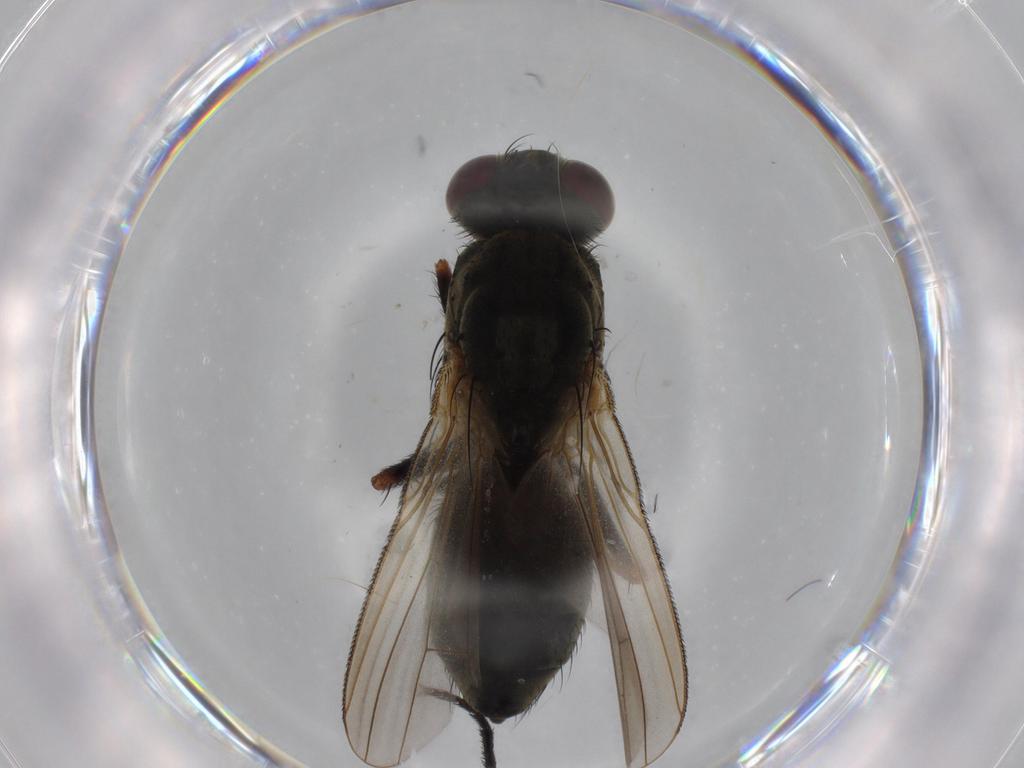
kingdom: Animalia
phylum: Arthropoda
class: Insecta
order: Diptera
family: Muscidae
